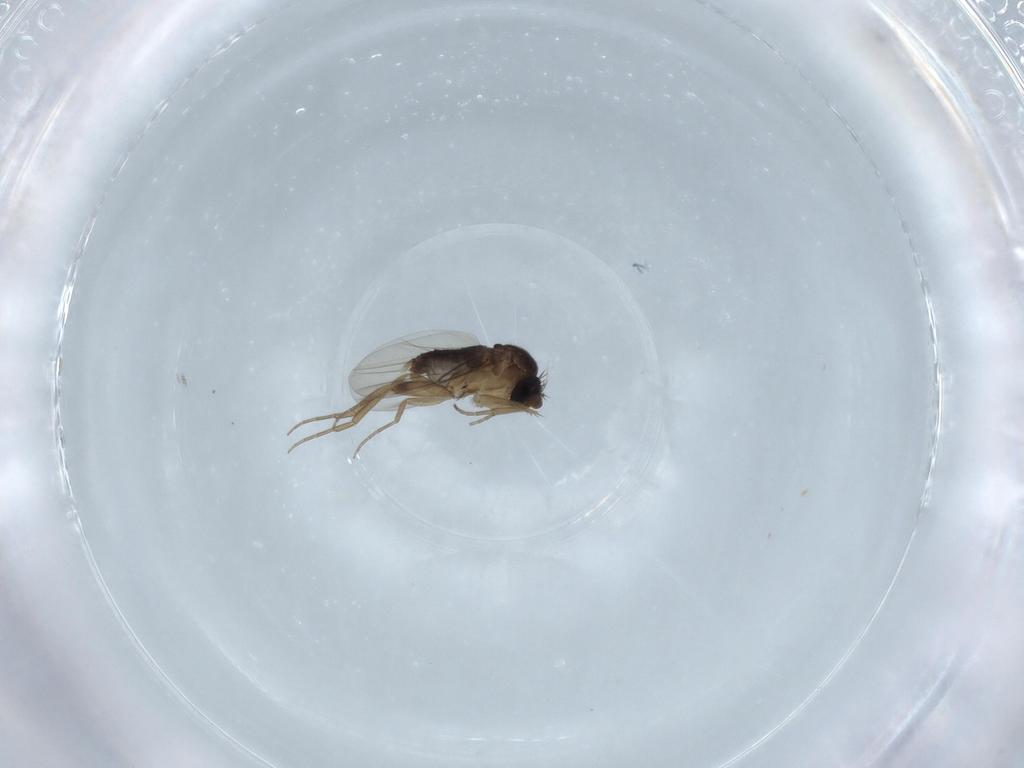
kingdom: Animalia
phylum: Arthropoda
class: Insecta
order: Diptera
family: Phoridae
